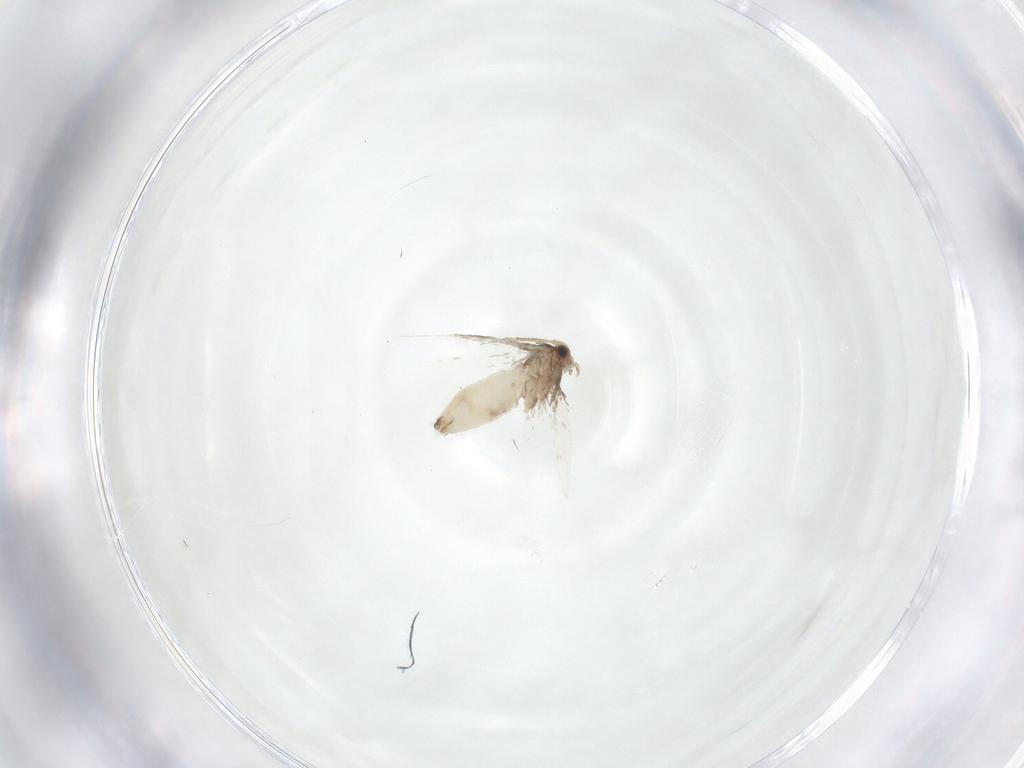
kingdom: Animalia
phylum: Arthropoda
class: Insecta
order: Lepidoptera
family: Nepticulidae
